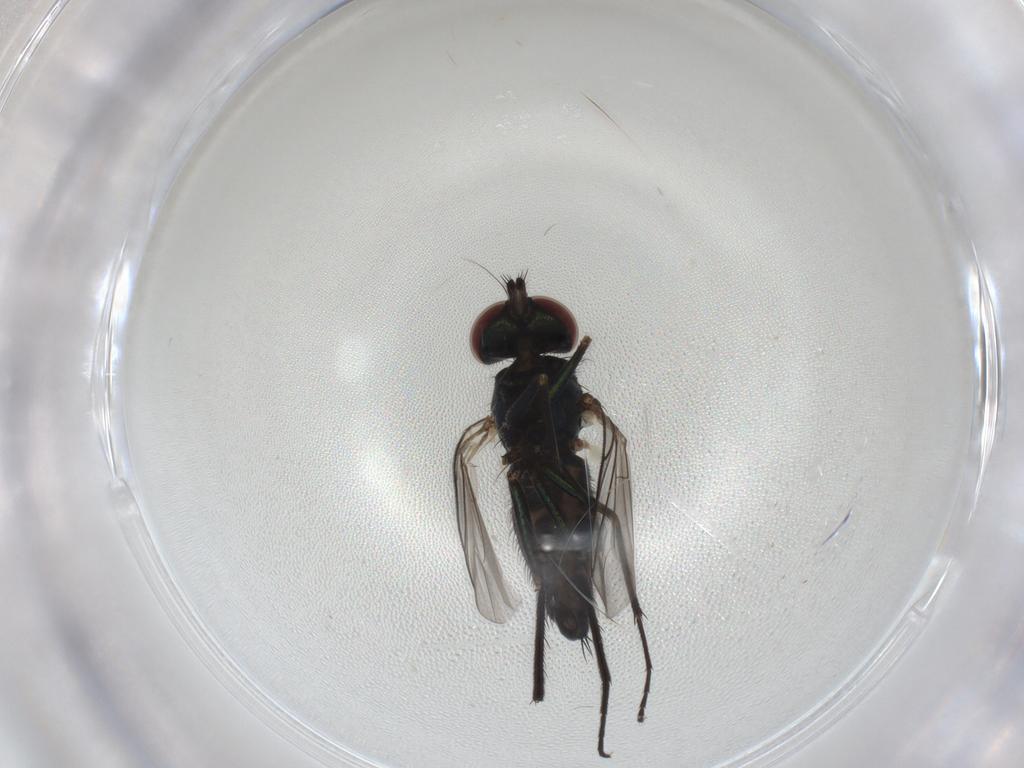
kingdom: Animalia
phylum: Arthropoda
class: Insecta
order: Diptera
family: Dolichopodidae
